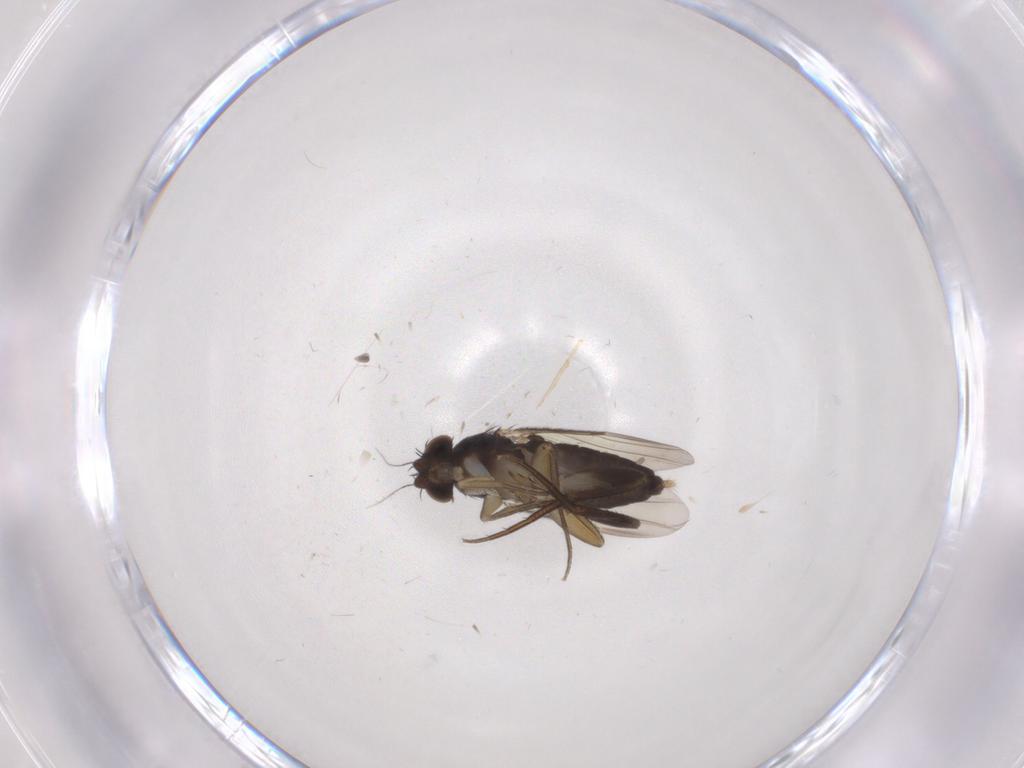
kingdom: Animalia
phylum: Arthropoda
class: Insecta
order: Diptera
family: Phoridae
